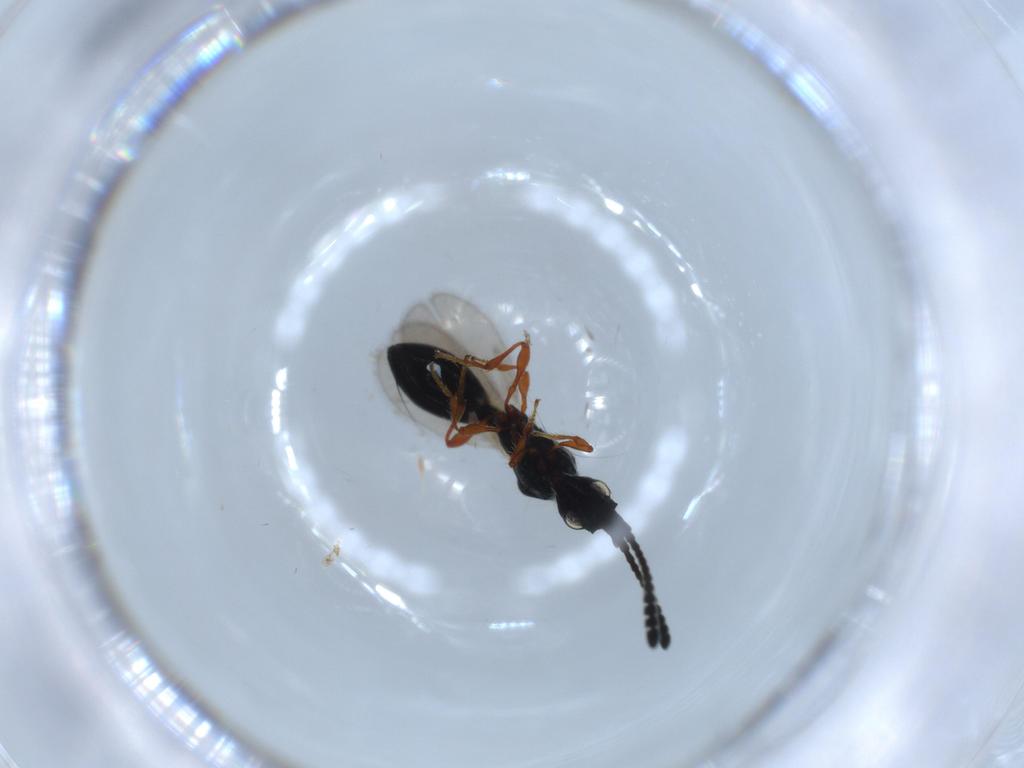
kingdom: Animalia
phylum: Arthropoda
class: Insecta
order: Hymenoptera
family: Diapriidae
